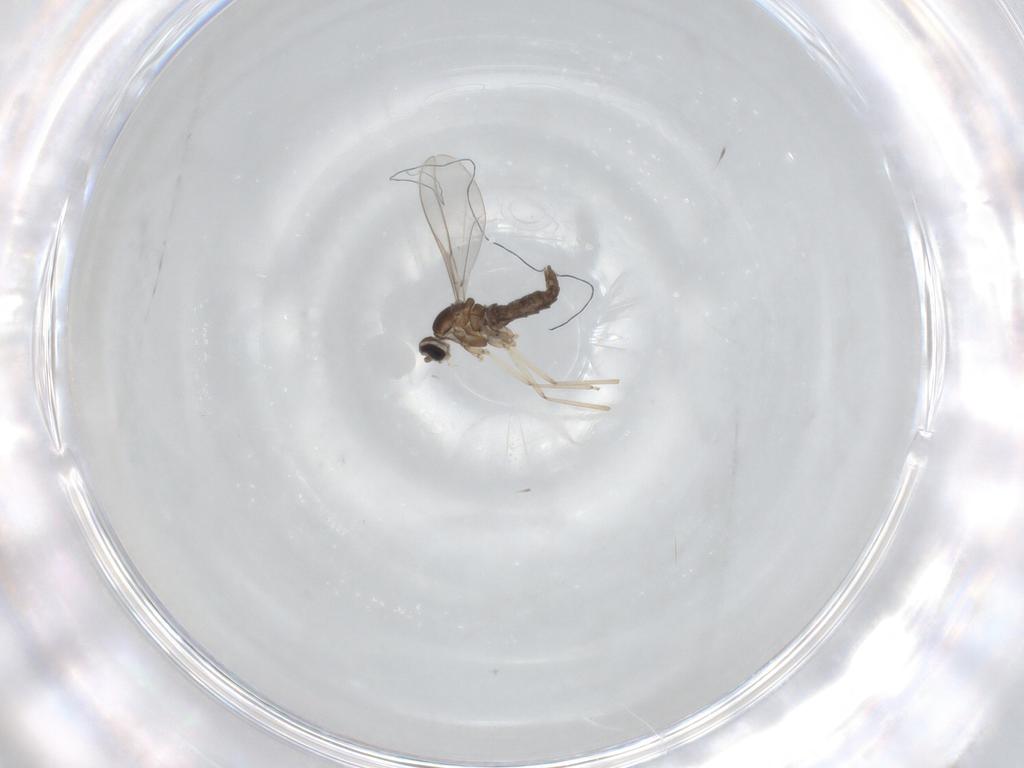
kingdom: Animalia
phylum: Arthropoda
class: Insecta
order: Diptera
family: Cecidomyiidae
